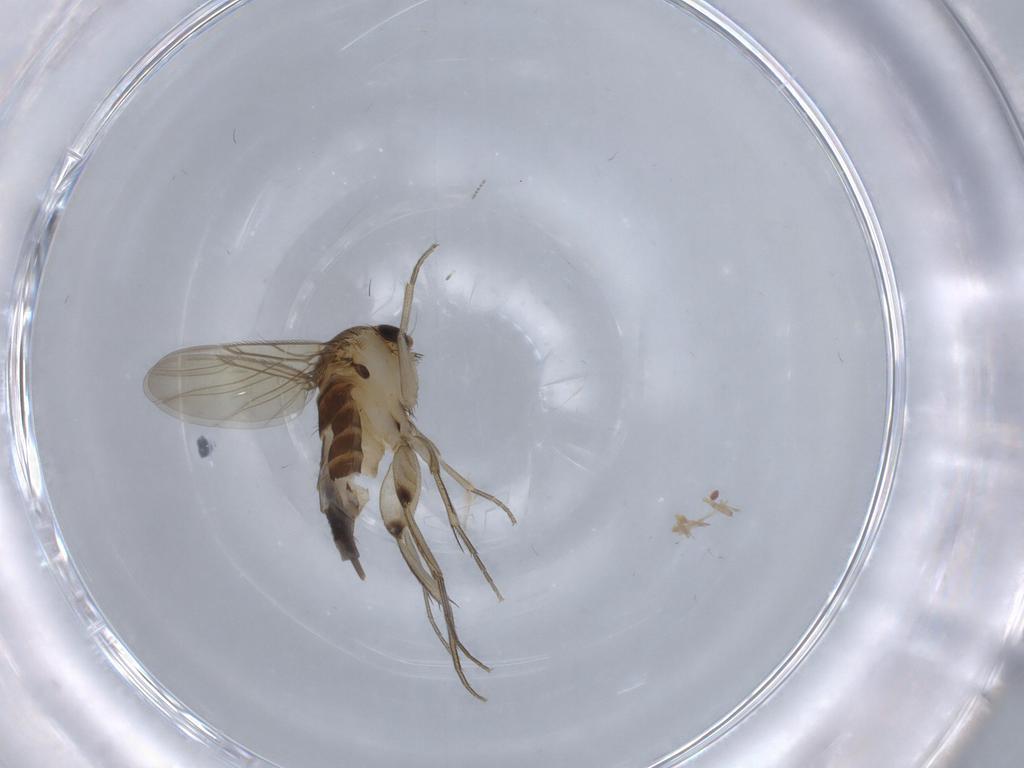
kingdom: Animalia
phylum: Arthropoda
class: Insecta
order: Diptera
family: Cecidomyiidae
